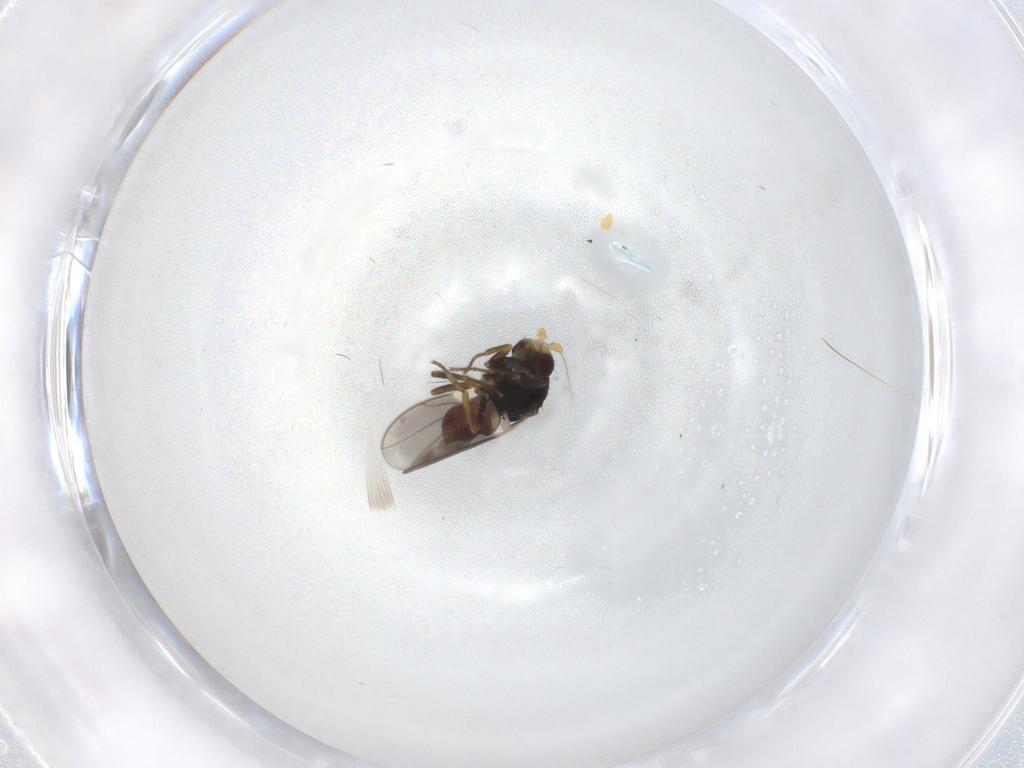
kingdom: Animalia
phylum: Arthropoda
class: Insecta
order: Diptera
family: Sphaeroceridae
